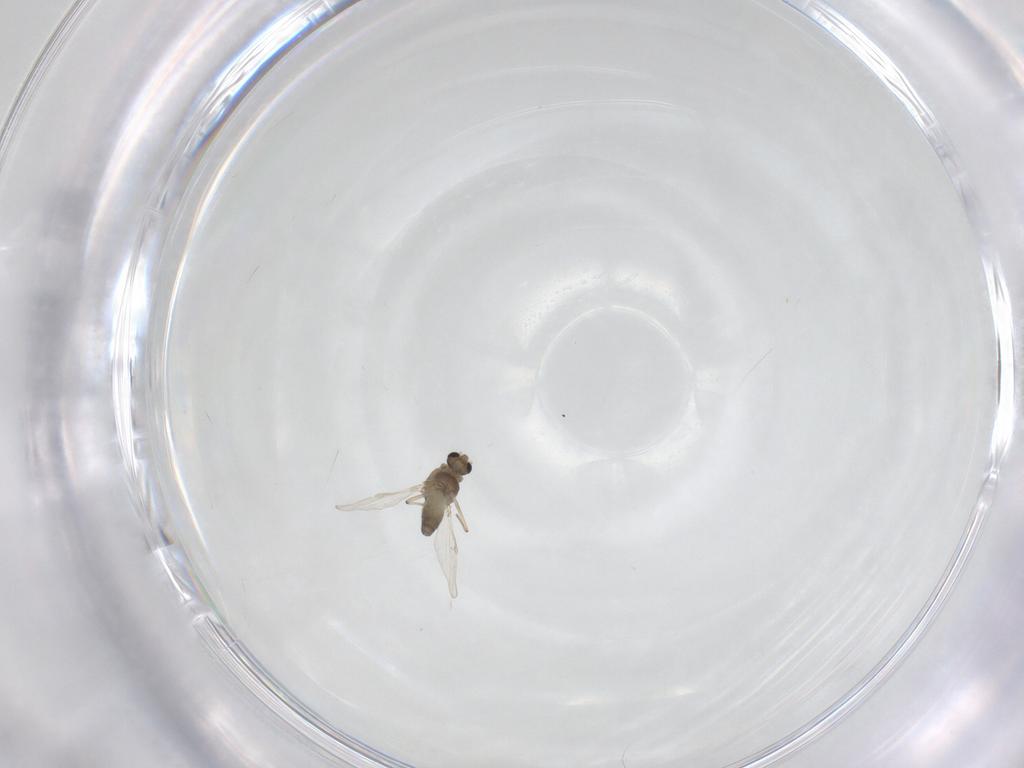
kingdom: Animalia
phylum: Arthropoda
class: Insecta
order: Diptera
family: Chironomidae
